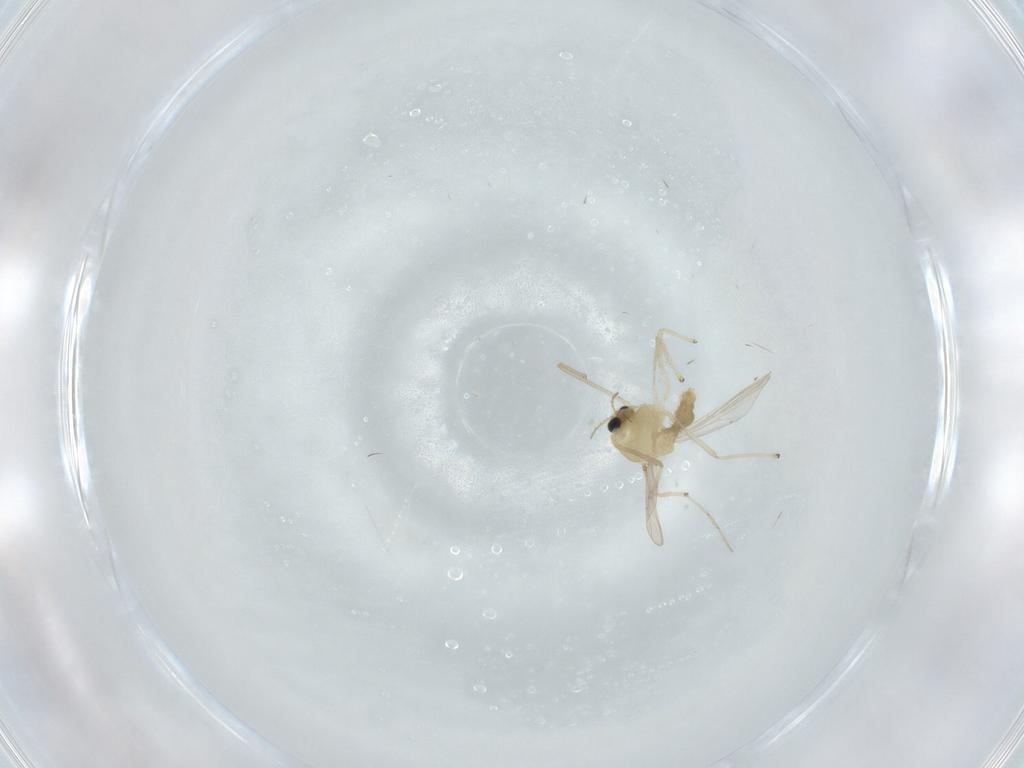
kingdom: Animalia
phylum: Arthropoda
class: Insecta
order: Diptera
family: Chironomidae
